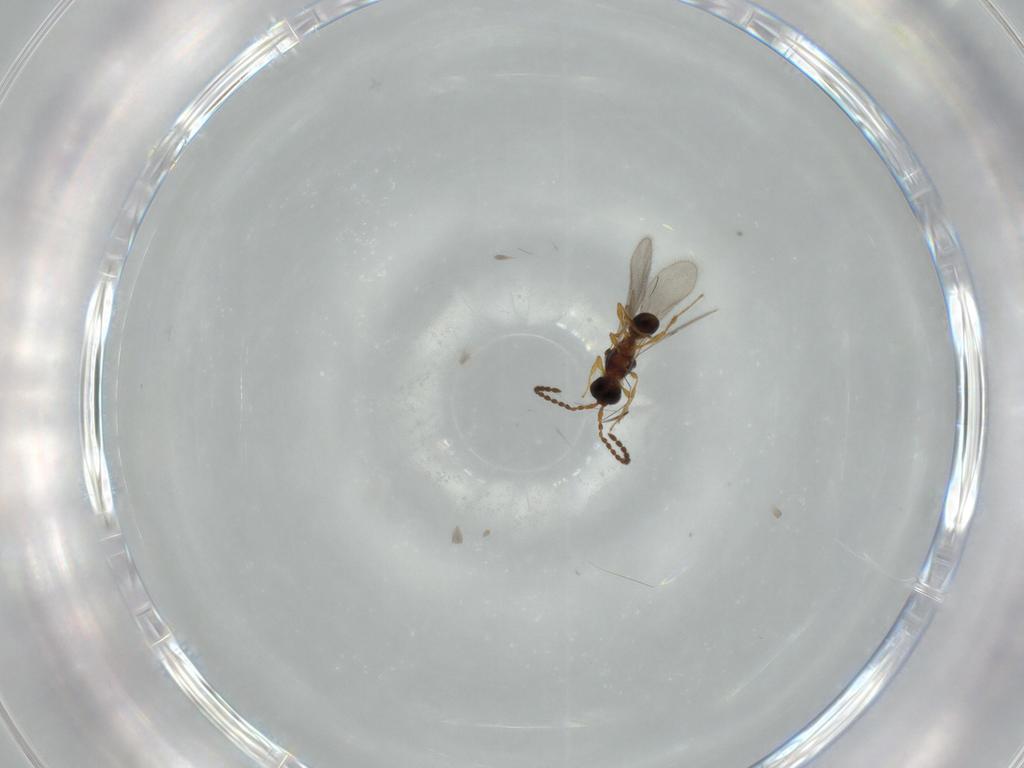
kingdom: Animalia
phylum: Arthropoda
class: Insecta
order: Hymenoptera
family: Diapriidae
